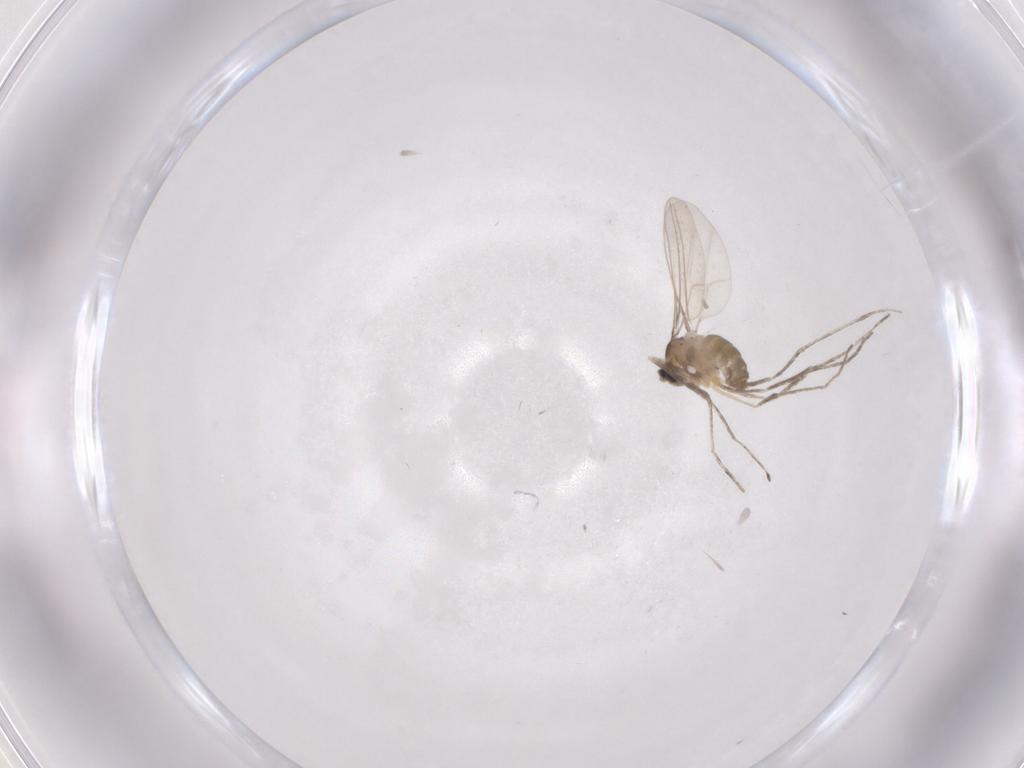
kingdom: Animalia
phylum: Arthropoda
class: Insecta
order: Diptera
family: Cecidomyiidae
